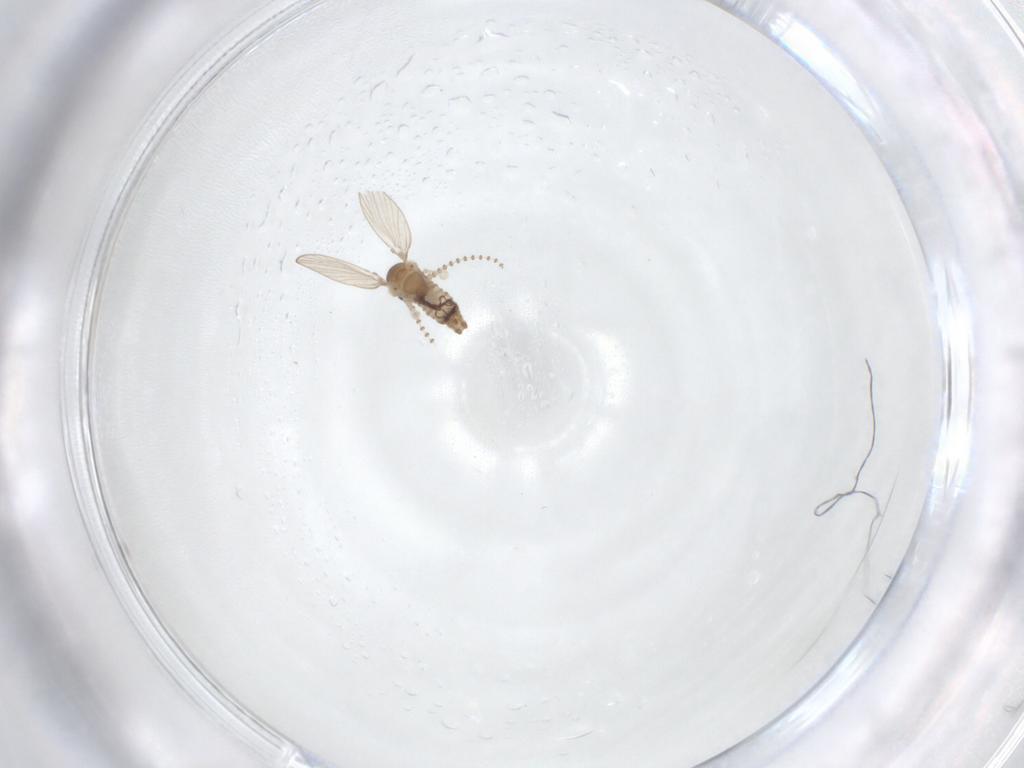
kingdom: Animalia
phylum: Arthropoda
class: Insecta
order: Diptera
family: Psychodidae
